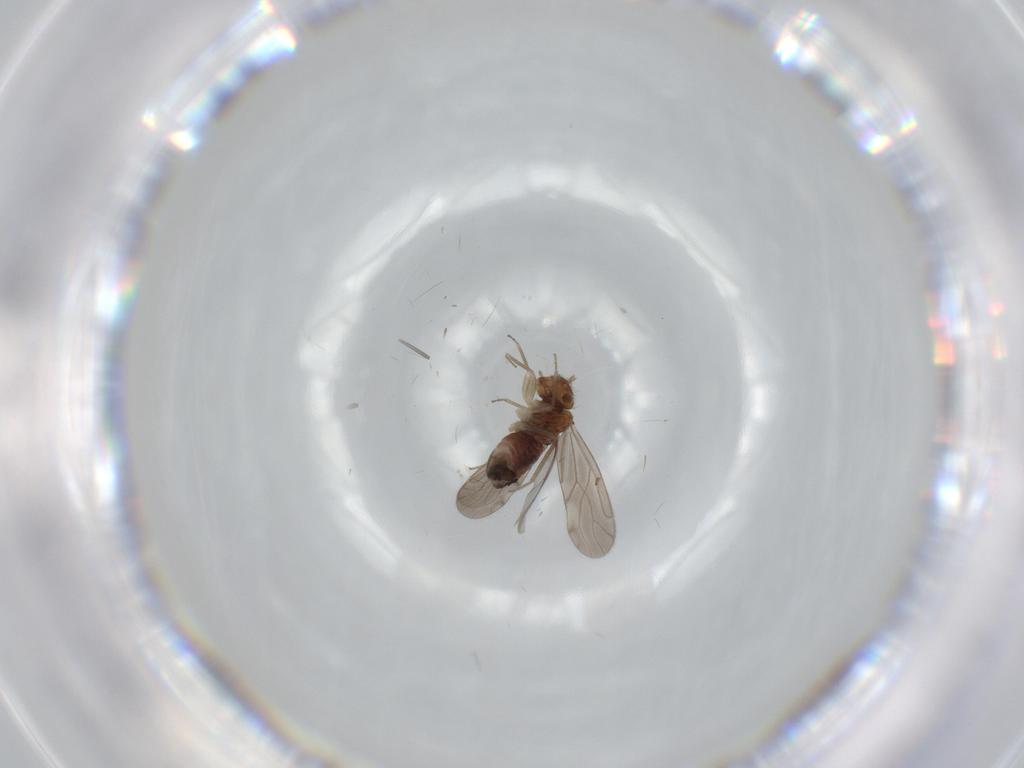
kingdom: Animalia
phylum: Arthropoda
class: Insecta
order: Psocodea
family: Ectopsocidae
